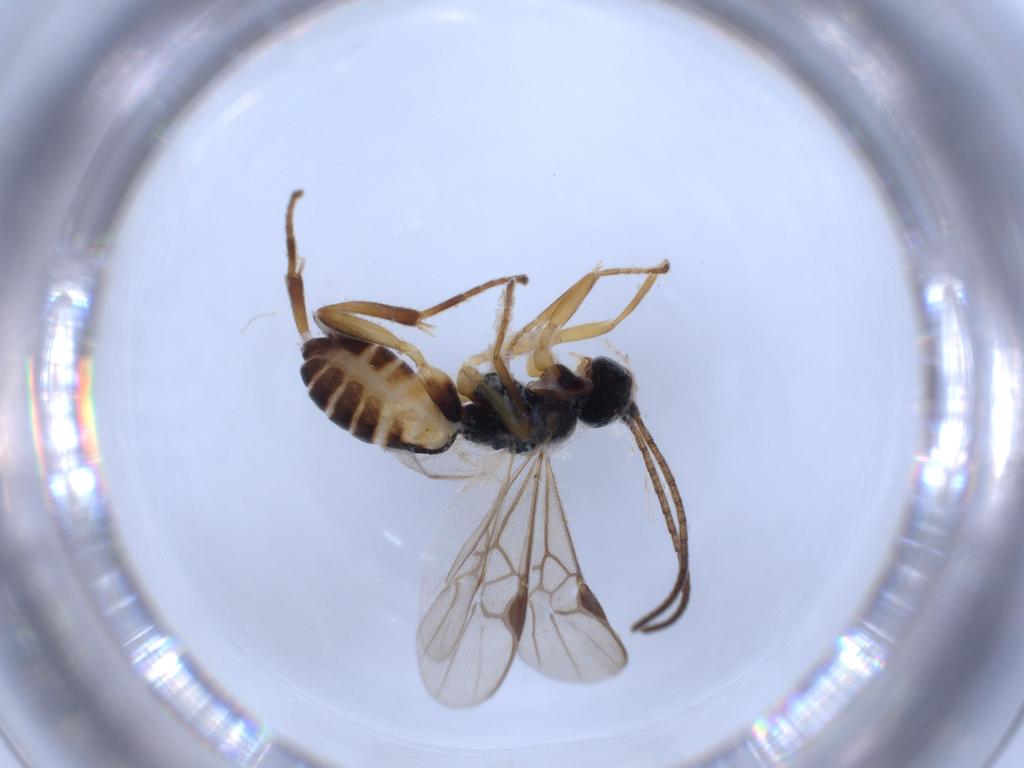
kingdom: Animalia
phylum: Arthropoda
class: Insecta
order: Hymenoptera
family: Braconidae
